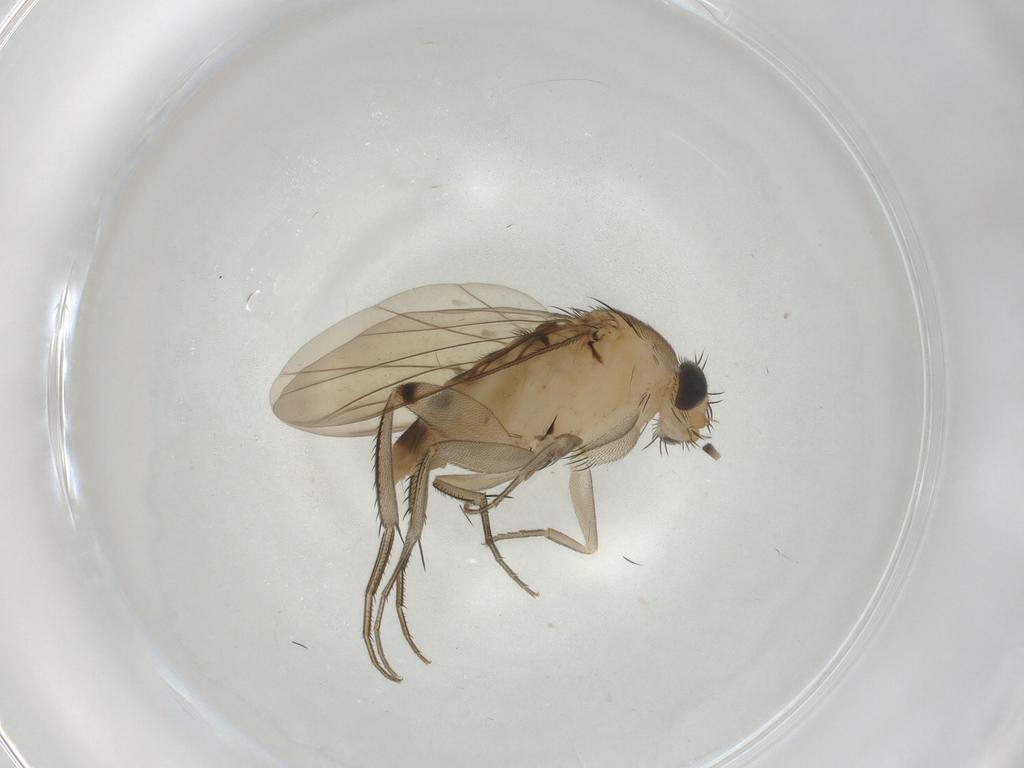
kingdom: Animalia
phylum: Arthropoda
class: Insecta
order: Diptera
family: Phoridae
